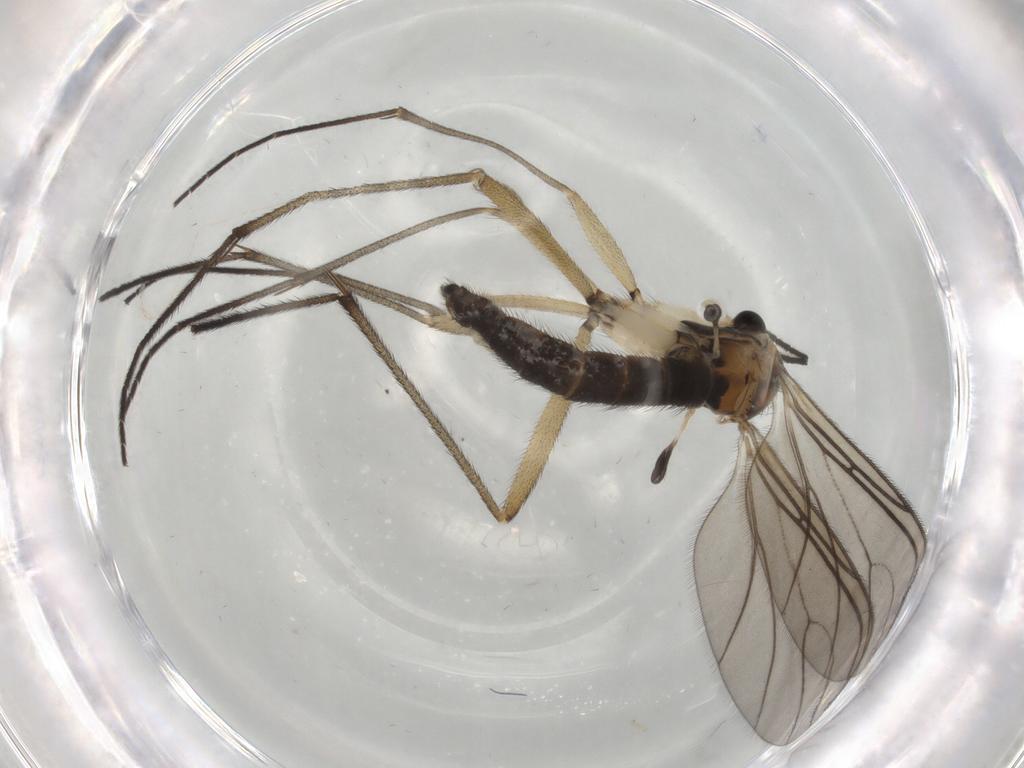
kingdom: Animalia
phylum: Arthropoda
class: Insecta
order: Diptera
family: Sciaridae
